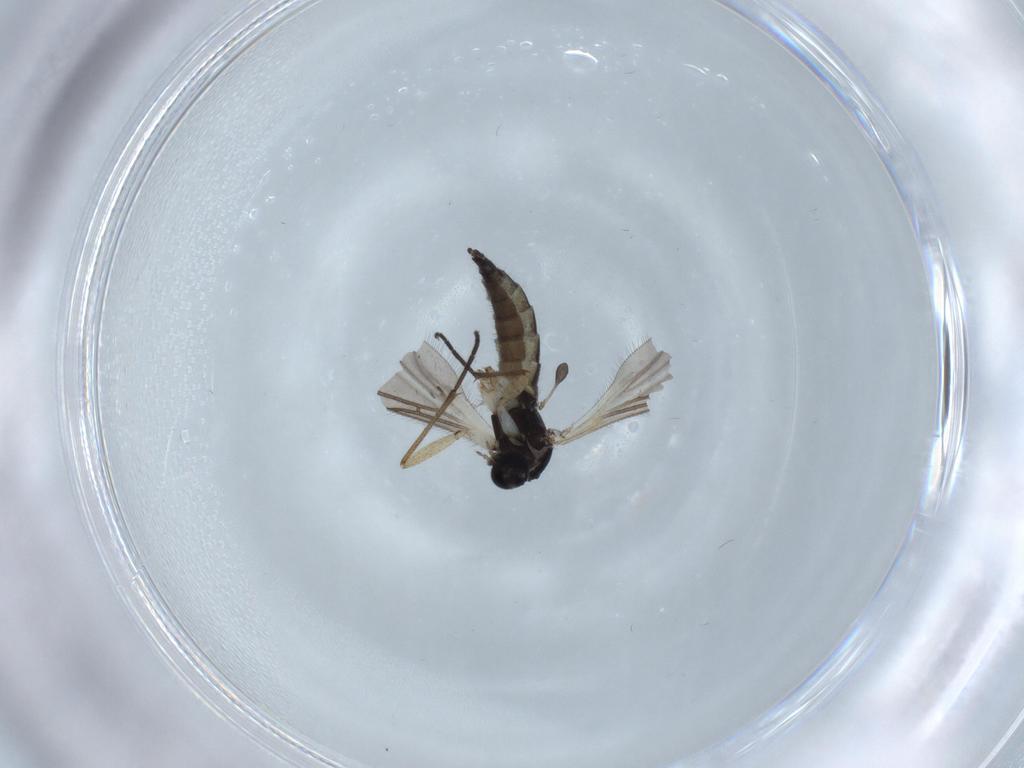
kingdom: Animalia
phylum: Arthropoda
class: Insecta
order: Diptera
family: Sciaridae
